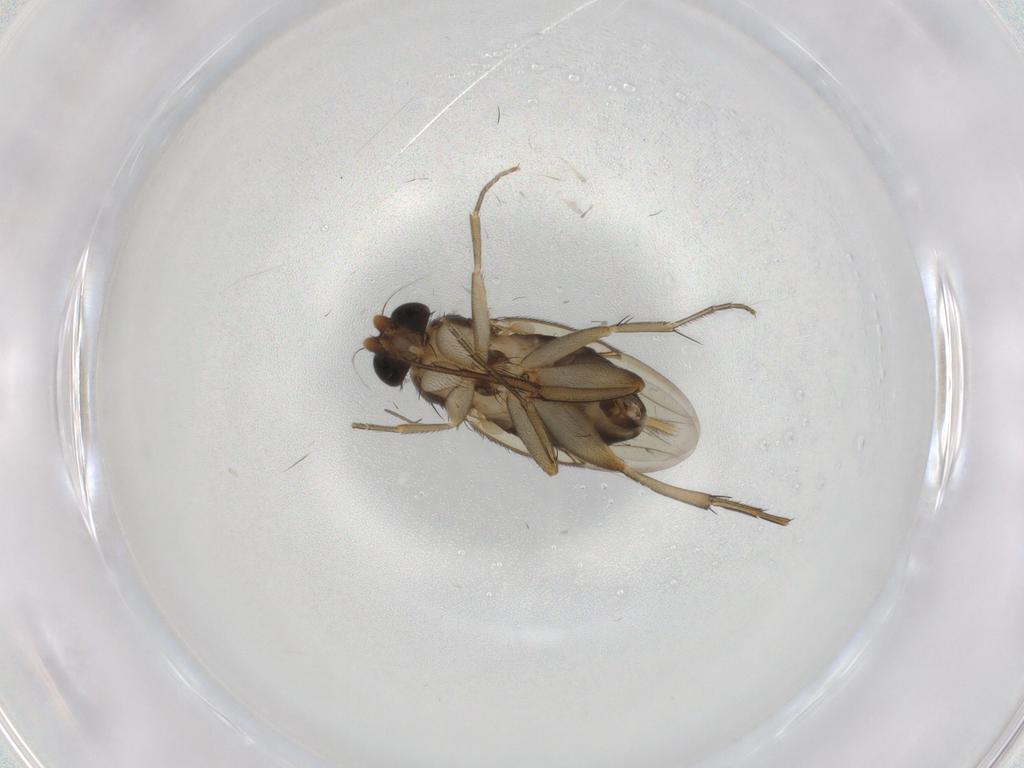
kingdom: Animalia
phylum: Arthropoda
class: Insecta
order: Diptera
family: Phoridae
